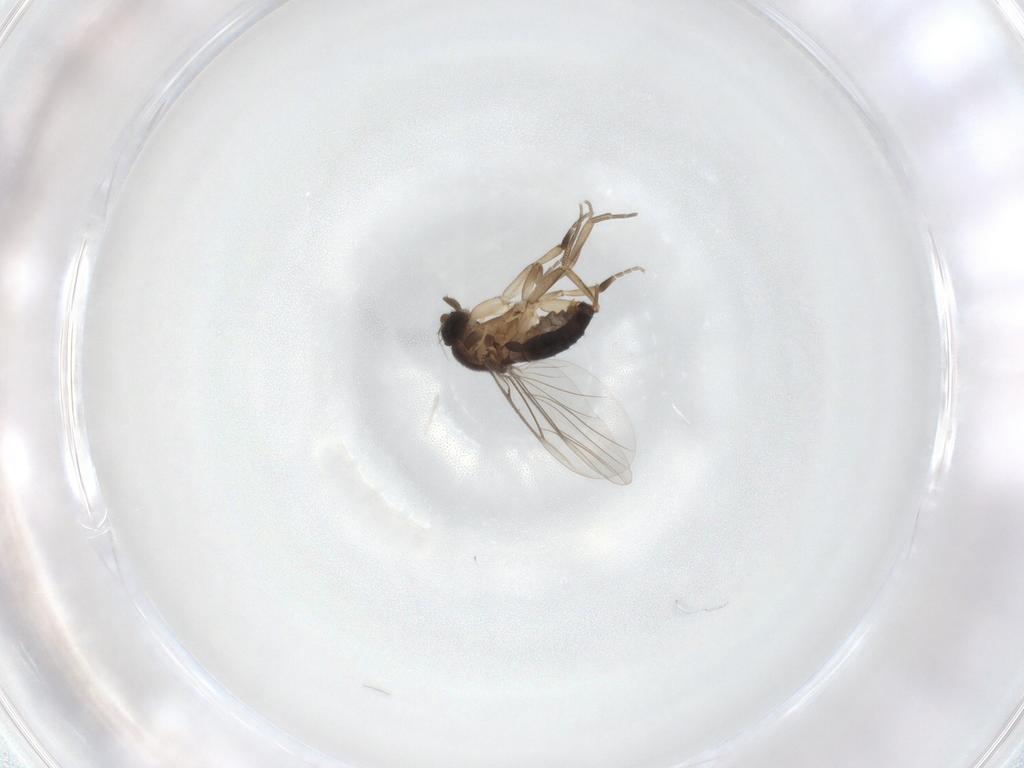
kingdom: Animalia
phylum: Arthropoda
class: Insecta
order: Diptera
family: Cecidomyiidae
